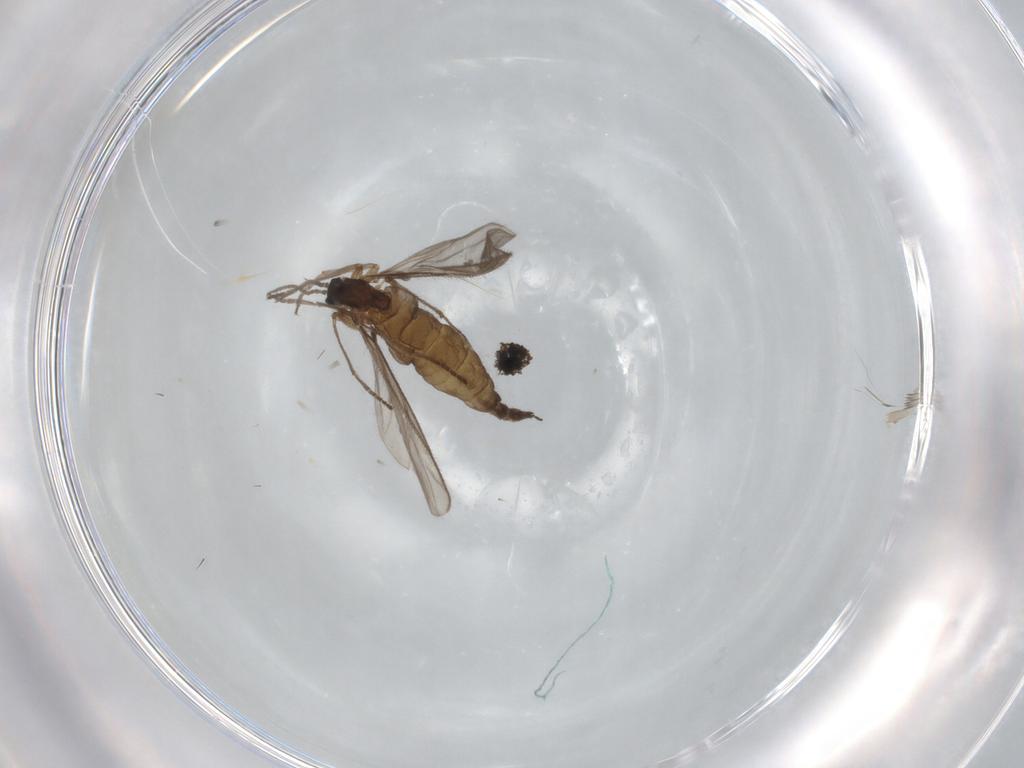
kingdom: Animalia
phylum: Arthropoda
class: Insecta
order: Diptera
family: Sciaridae
